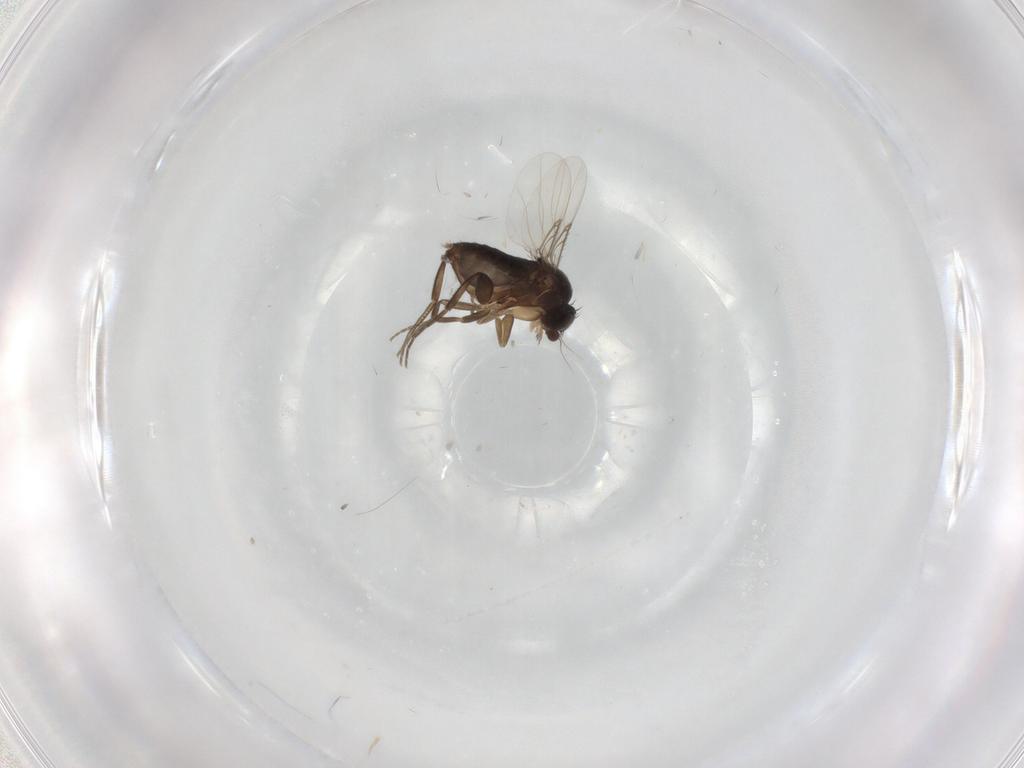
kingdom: Animalia
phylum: Arthropoda
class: Insecta
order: Diptera
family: Phoridae
